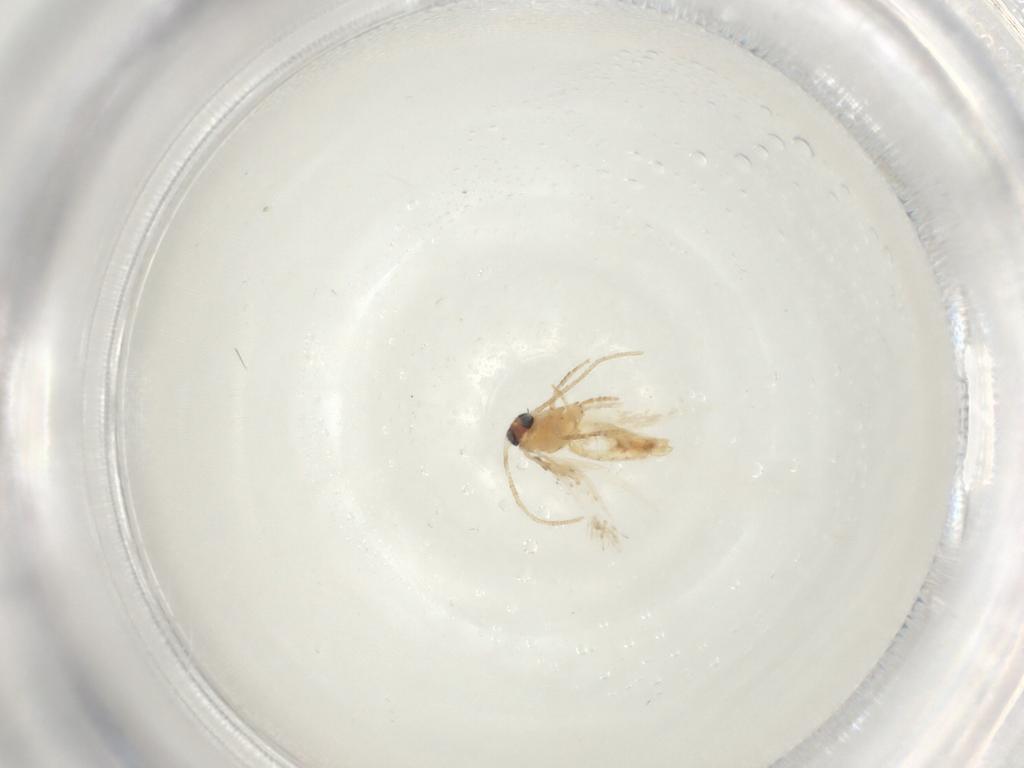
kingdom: Animalia
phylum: Arthropoda
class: Insecta
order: Lepidoptera
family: Nepticulidae
